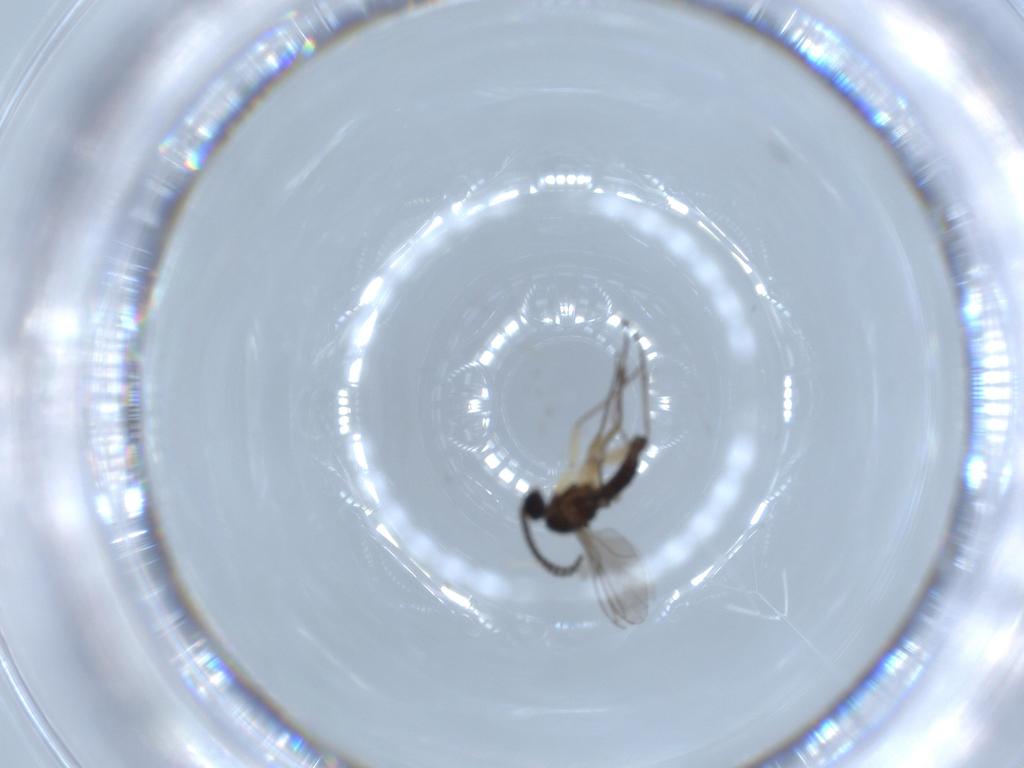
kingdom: Animalia
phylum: Arthropoda
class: Insecta
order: Diptera
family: Sciaridae
